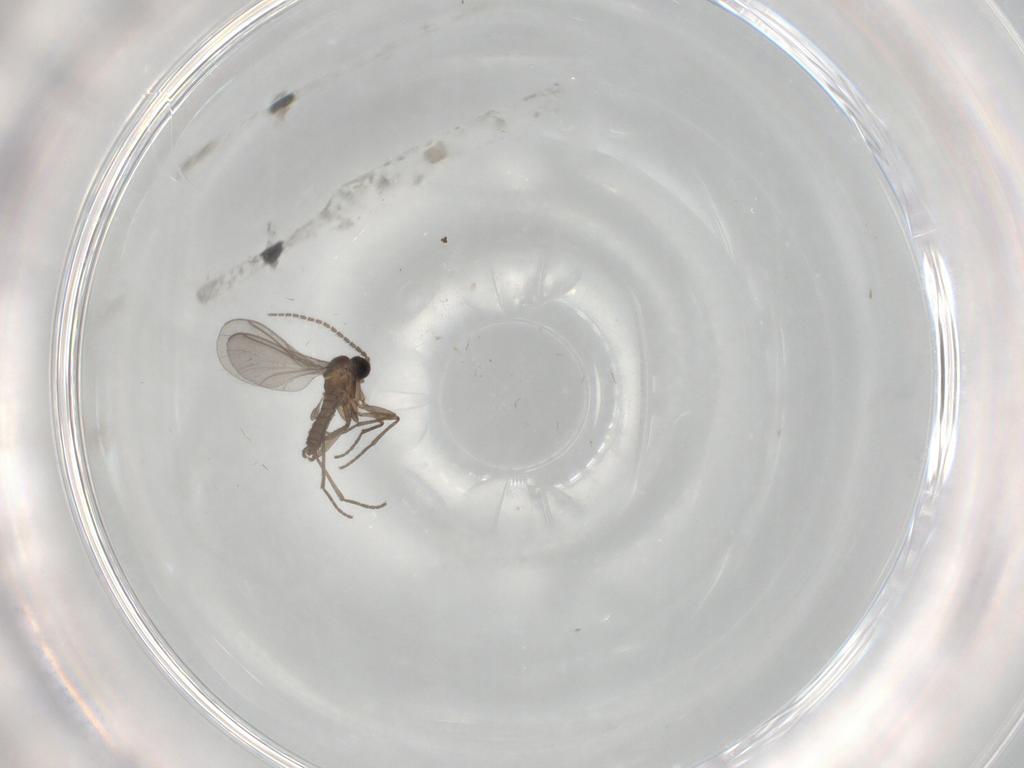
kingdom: Animalia
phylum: Arthropoda
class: Insecta
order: Diptera
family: Sciaridae
